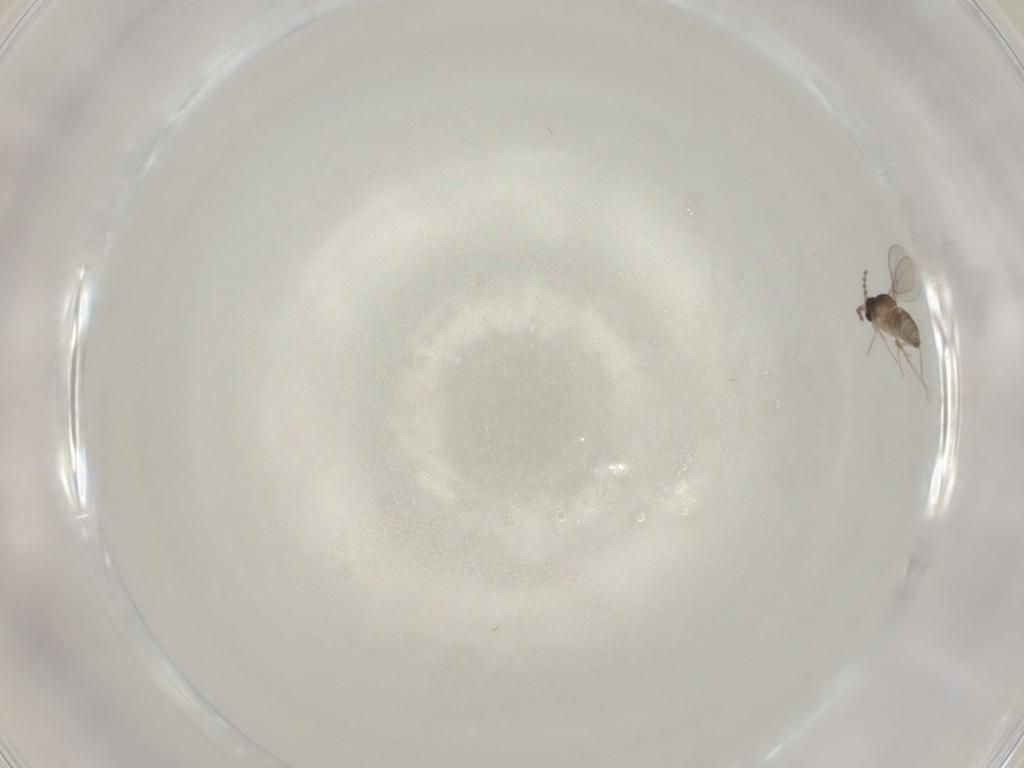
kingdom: Animalia
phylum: Arthropoda
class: Insecta
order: Diptera
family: Cecidomyiidae
